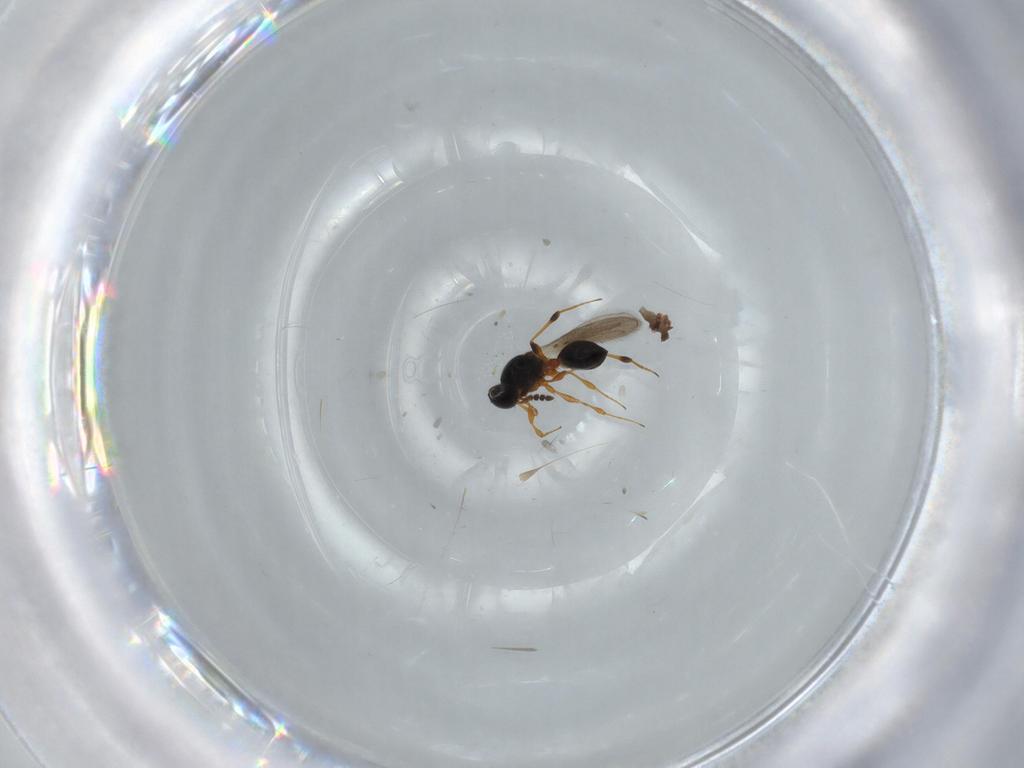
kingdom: Animalia
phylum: Arthropoda
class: Insecta
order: Hymenoptera
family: Platygastridae
